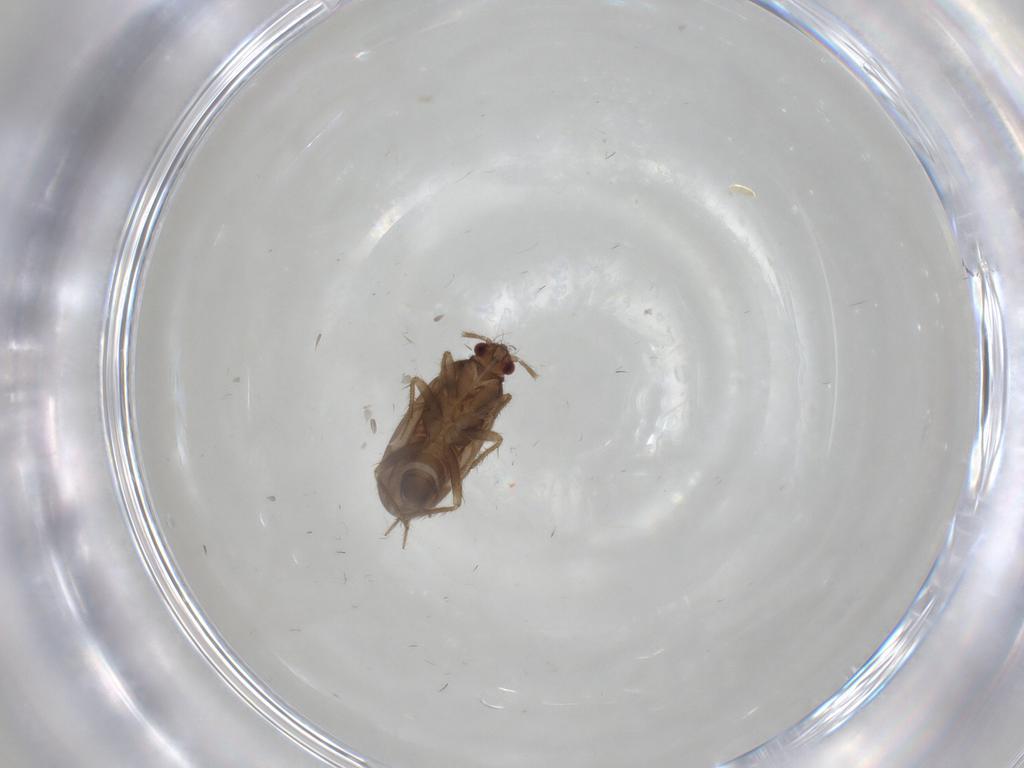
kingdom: Animalia
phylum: Arthropoda
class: Insecta
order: Hemiptera
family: Ceratocombidae
